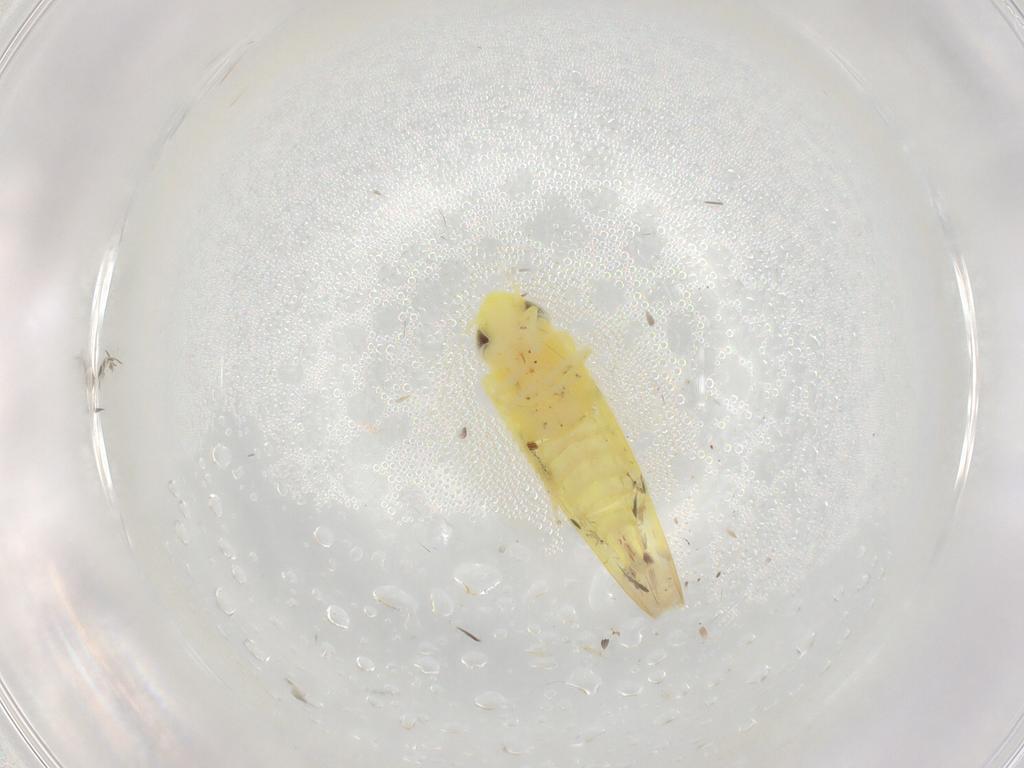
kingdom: Animalia
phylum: Arthropoda
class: Insecta
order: Hemiptera
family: Cicadellidae
